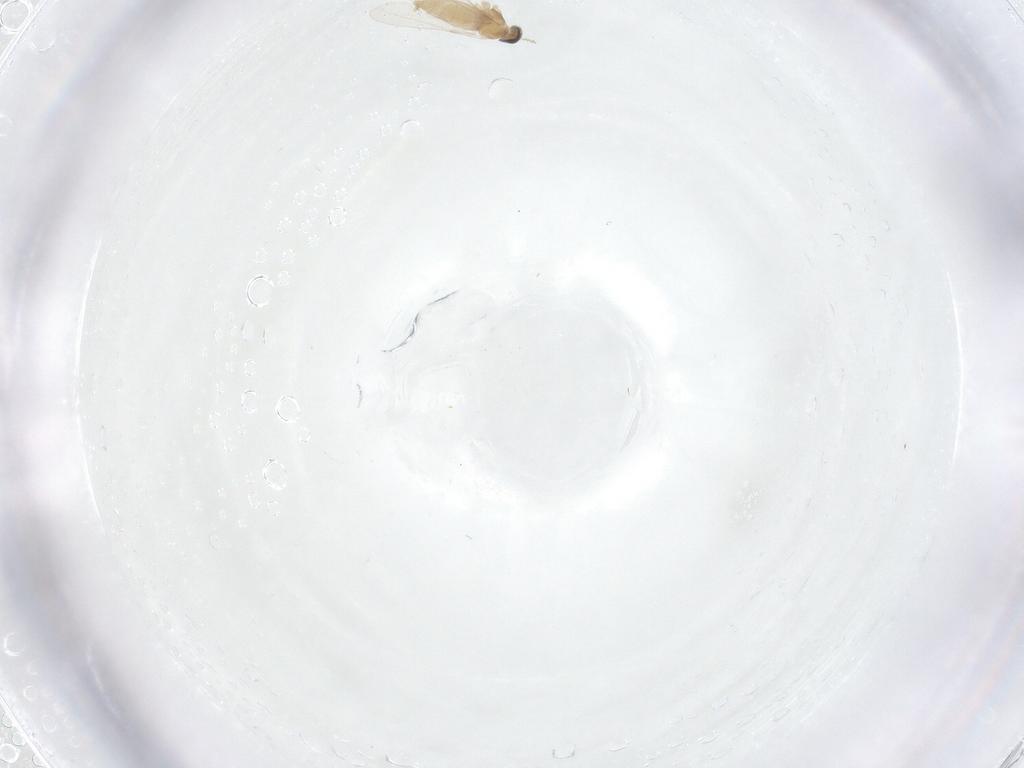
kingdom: Animalia
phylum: Arthropoda
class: Insecta
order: Diptera
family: Cecidomyiidae
